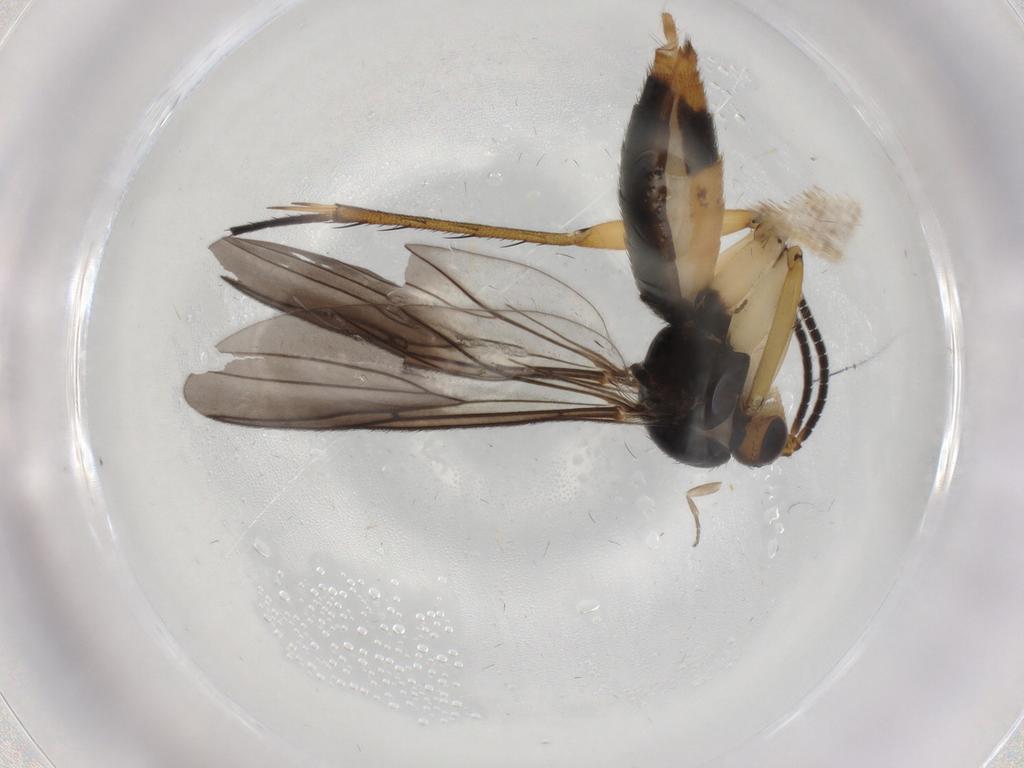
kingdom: Animalia
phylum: Arthropoda
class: Insecta
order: Diptera
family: Mycetophilidae
